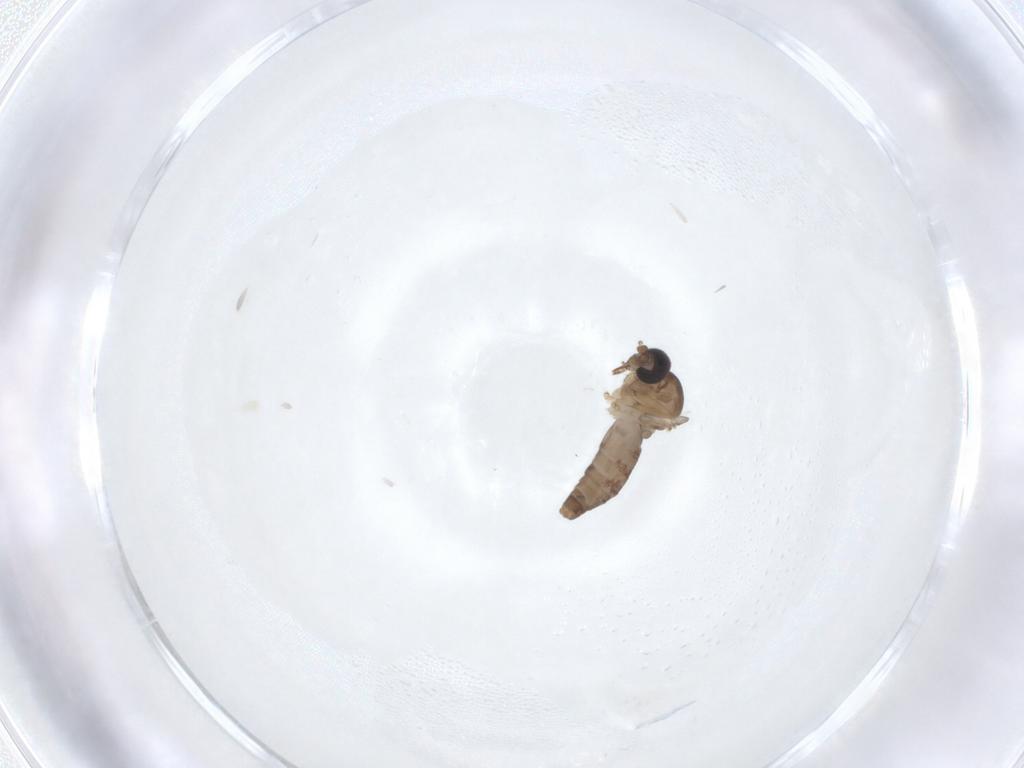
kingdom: Animalia
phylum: Arthropoda
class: Insecta
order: Diptera
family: Ceratopogonidae
